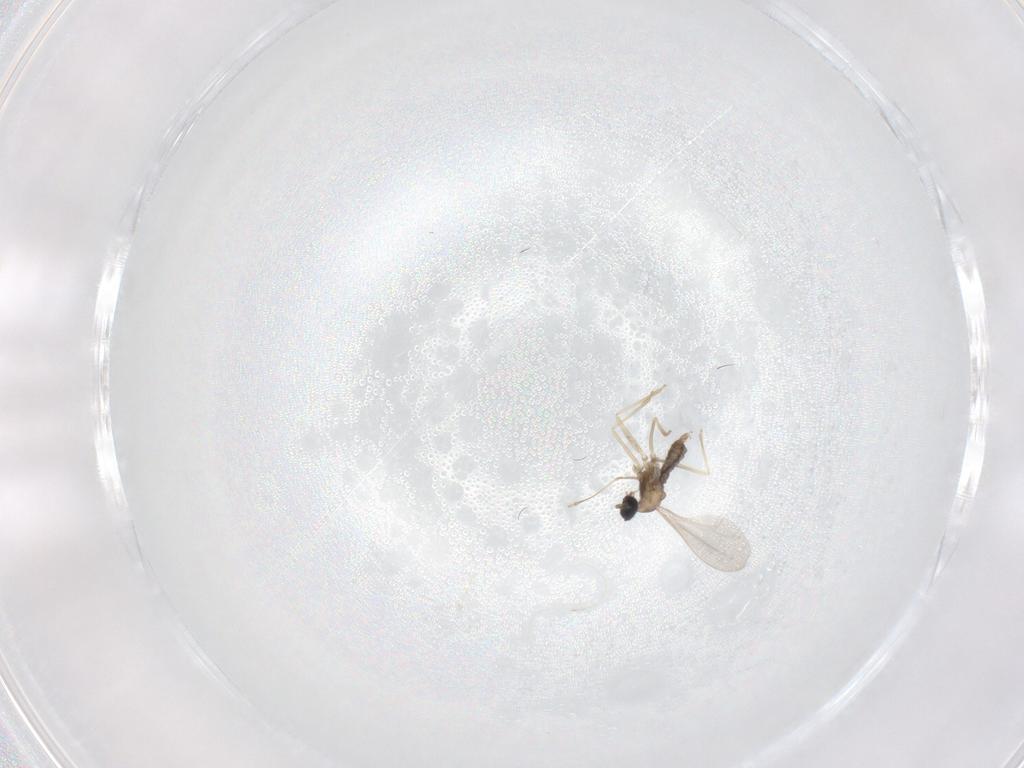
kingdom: Animalia
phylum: Arthropoda
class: Insecta
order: Diptera
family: Cecidomyiidae
